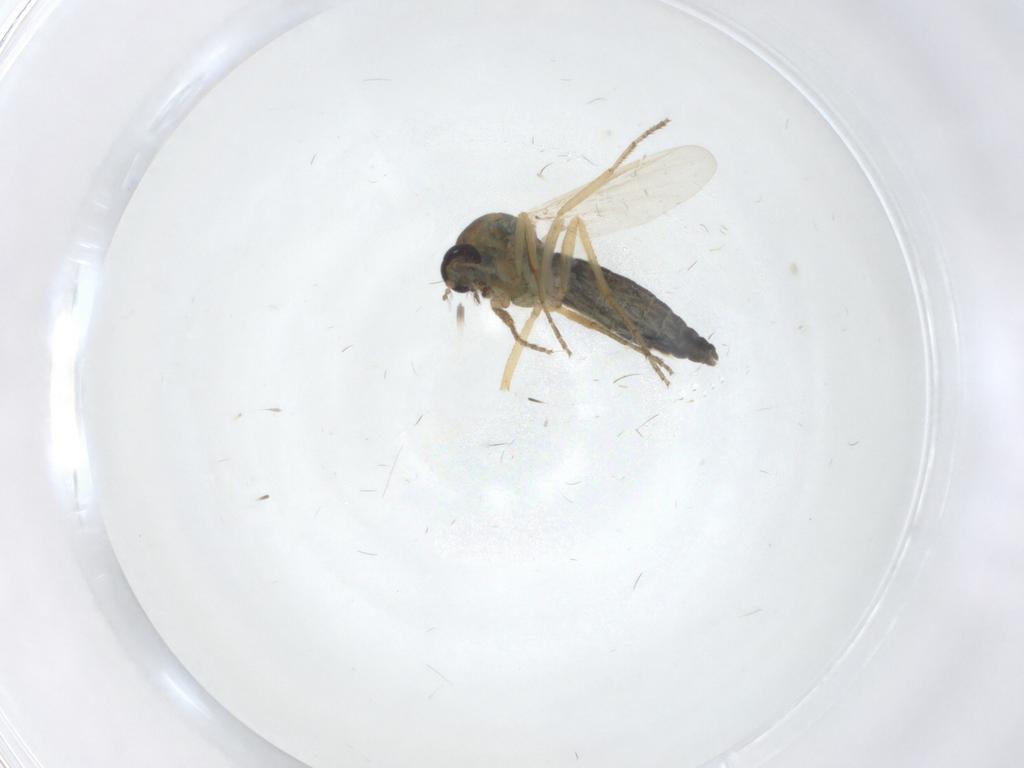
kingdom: Animalia
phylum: Arthropoda
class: Insecta
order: Diptera
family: Ceratopogonidae
